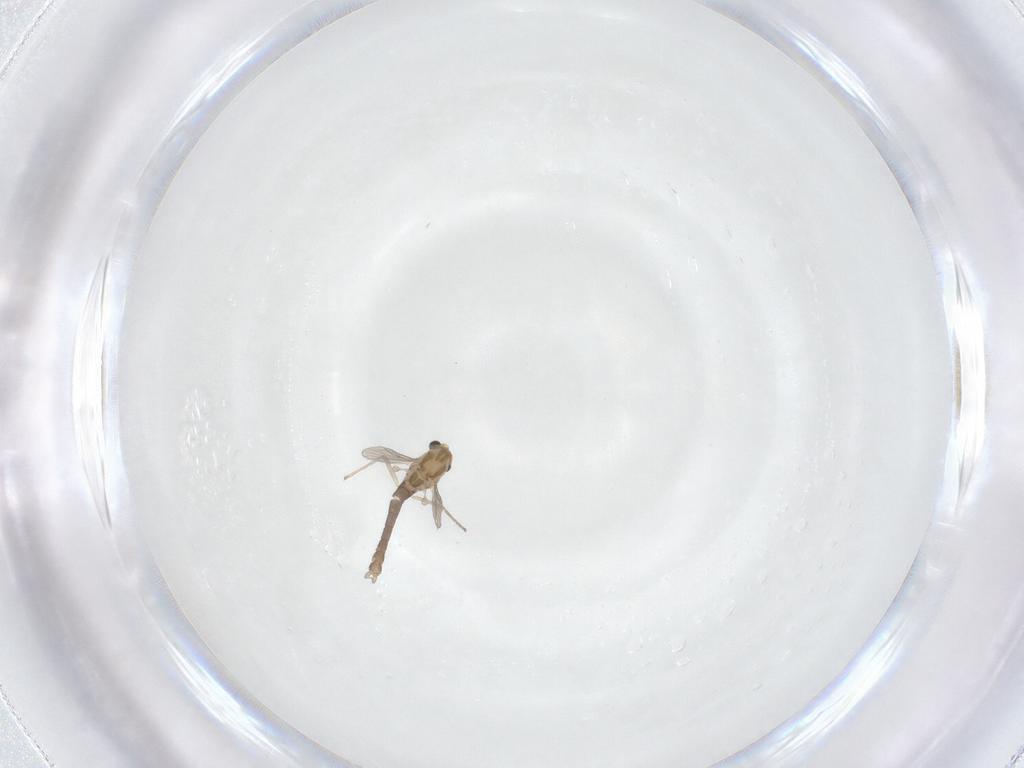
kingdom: Animalia
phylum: Arthropoda
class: Insecta
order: Diptera
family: Chironomidae
